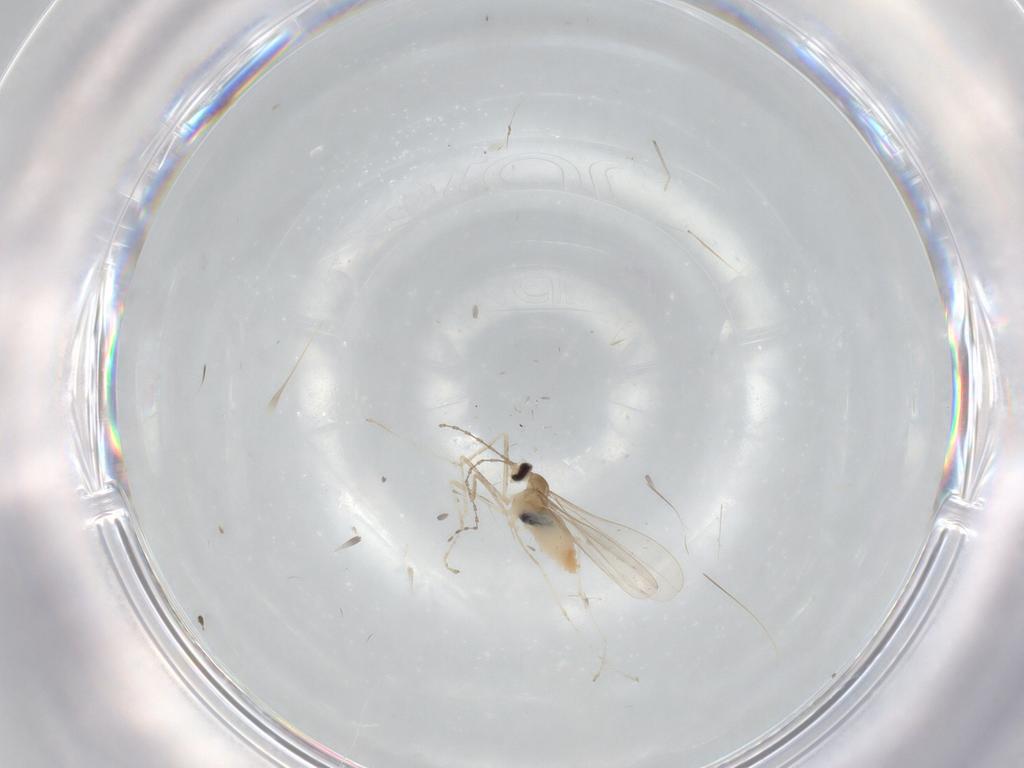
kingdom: Animalia
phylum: Arthropoda
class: Insecta
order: Diptera
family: Cecidomyiidae
